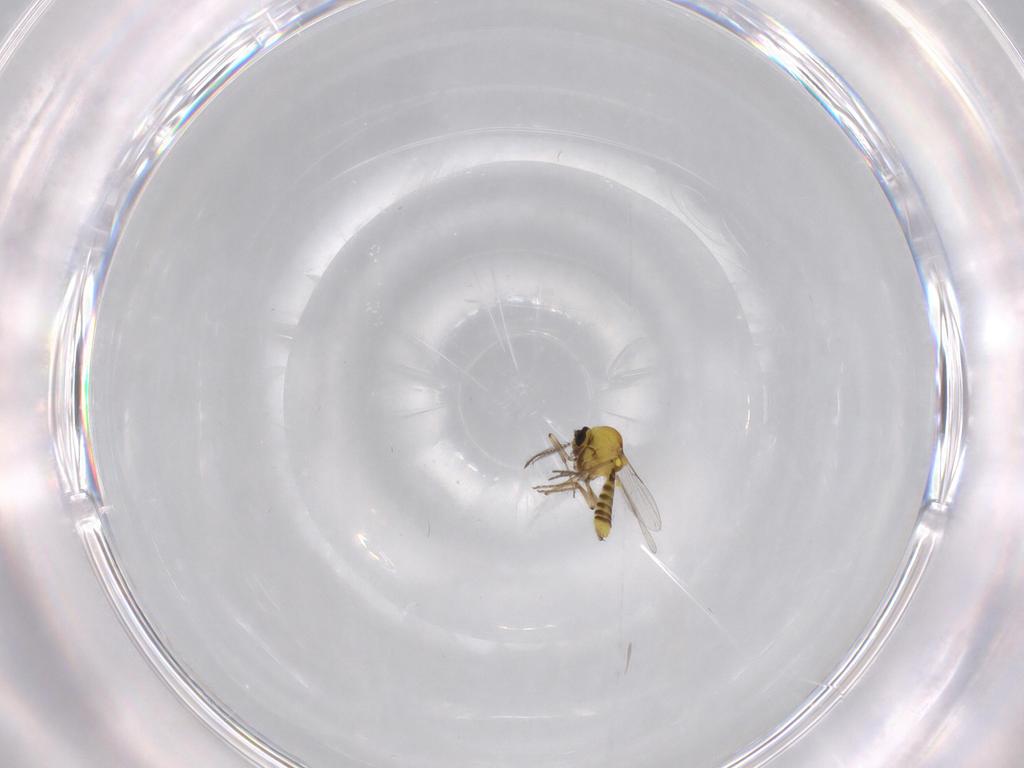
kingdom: Animalia
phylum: Arthropoda
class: Insecta
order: Diptera
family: Ceratopogonidae
